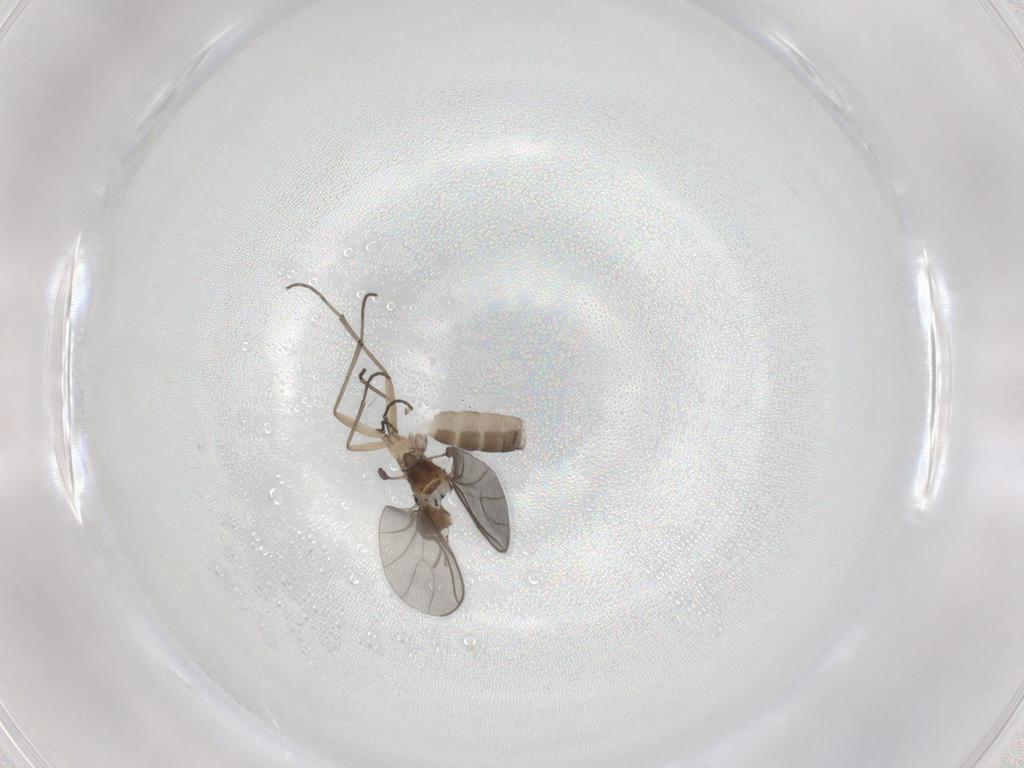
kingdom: Animalia
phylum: Arthropoda
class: Insecta
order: Diptera
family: Sciaridae
